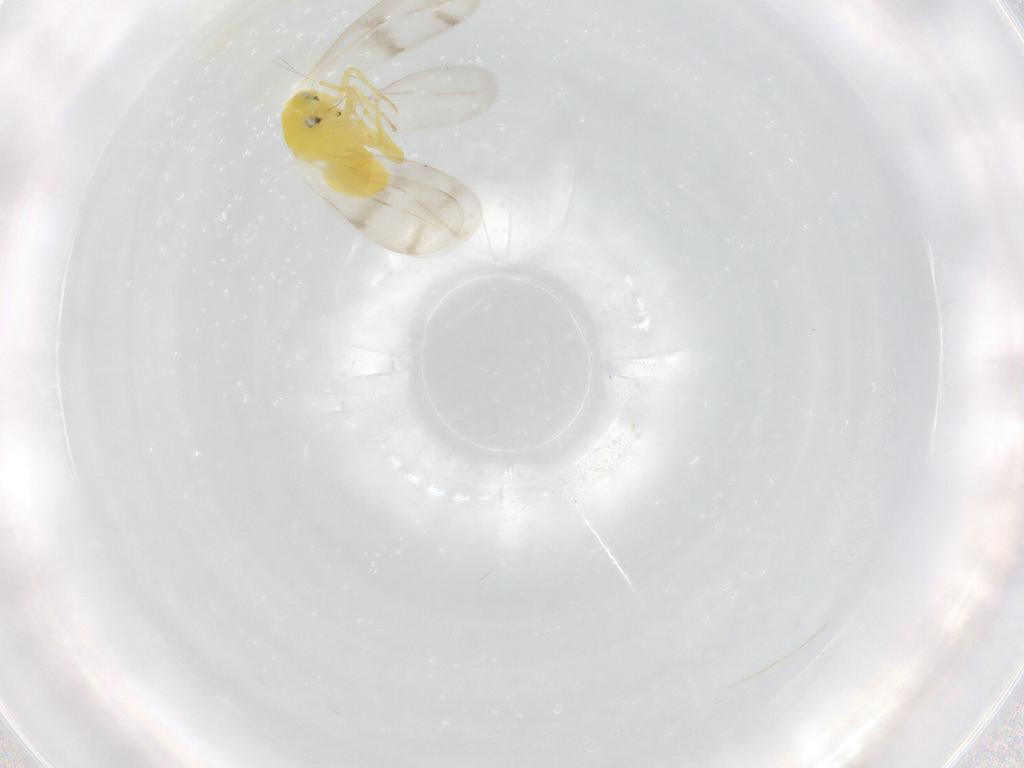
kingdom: Animalia
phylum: Arthropoda
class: Insecta
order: Hemiptera
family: Aleyrodidae
